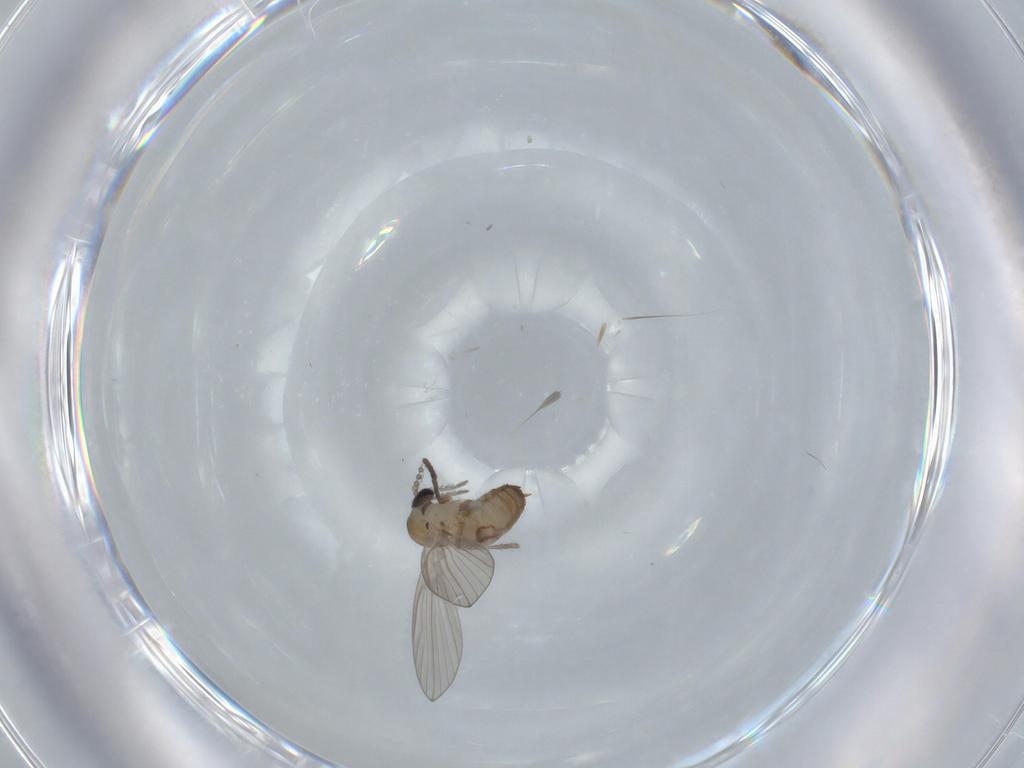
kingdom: Animalia
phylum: Arthropoda
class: Insecta
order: Diptera
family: Psychodidae
